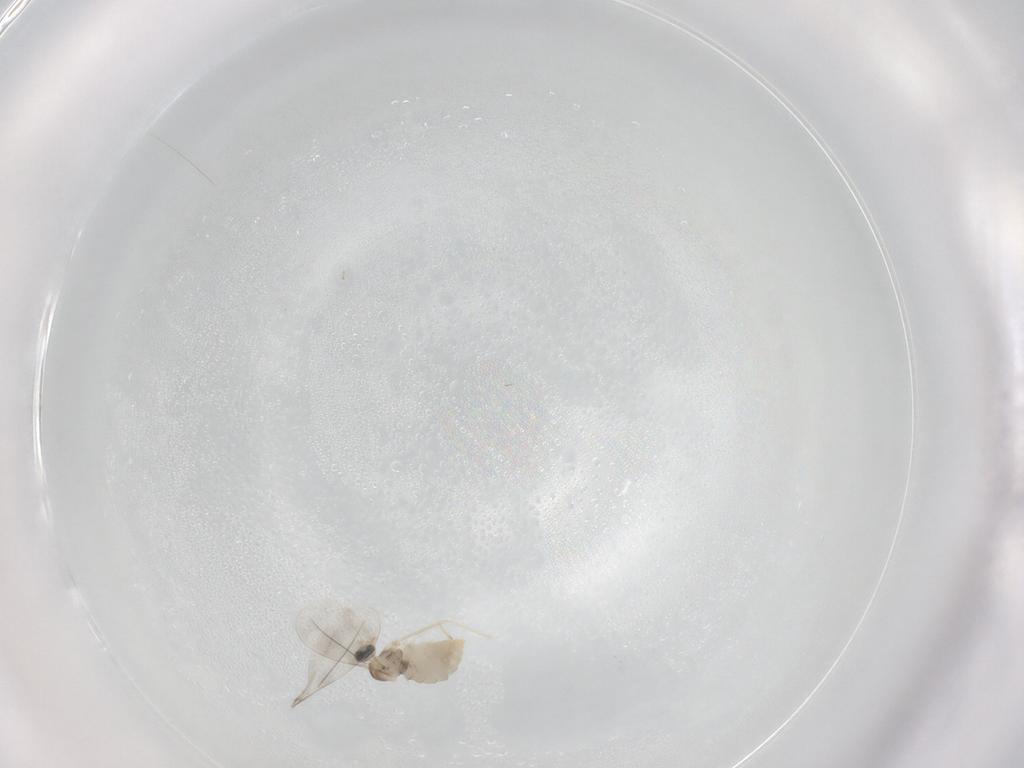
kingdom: Animalia
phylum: Arthropoda
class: Insecta
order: Diptera
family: Cecidomyiidae
